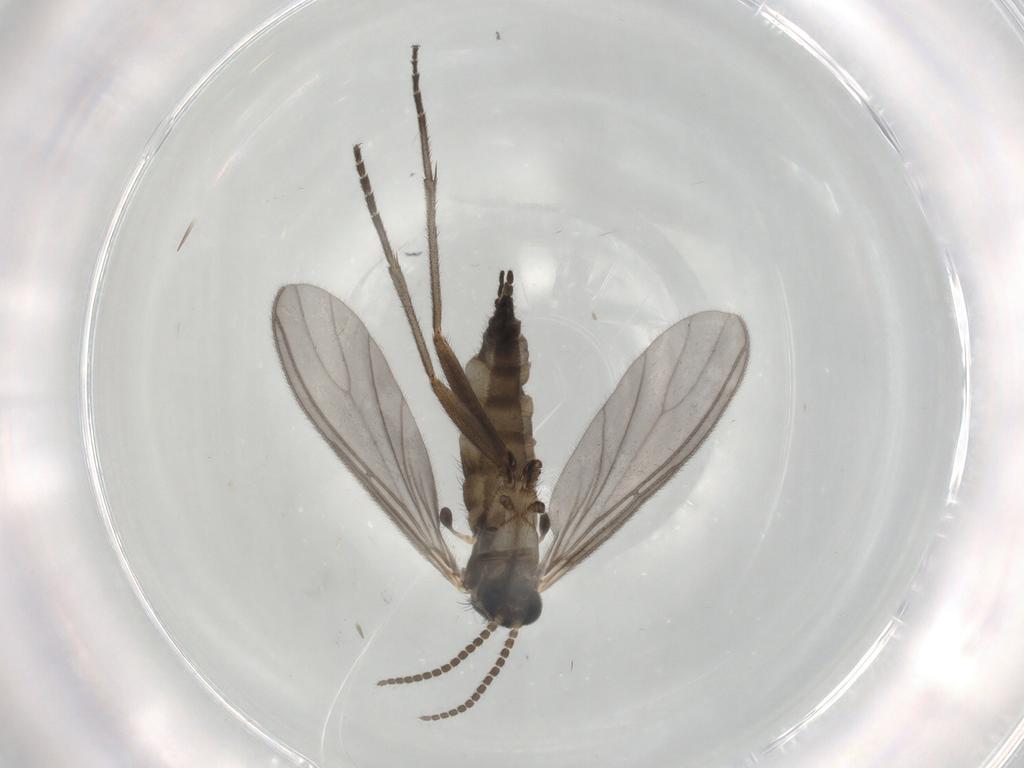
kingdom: Animalia
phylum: Arthropoda
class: Insecta
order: Diptera
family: Sciaridae
